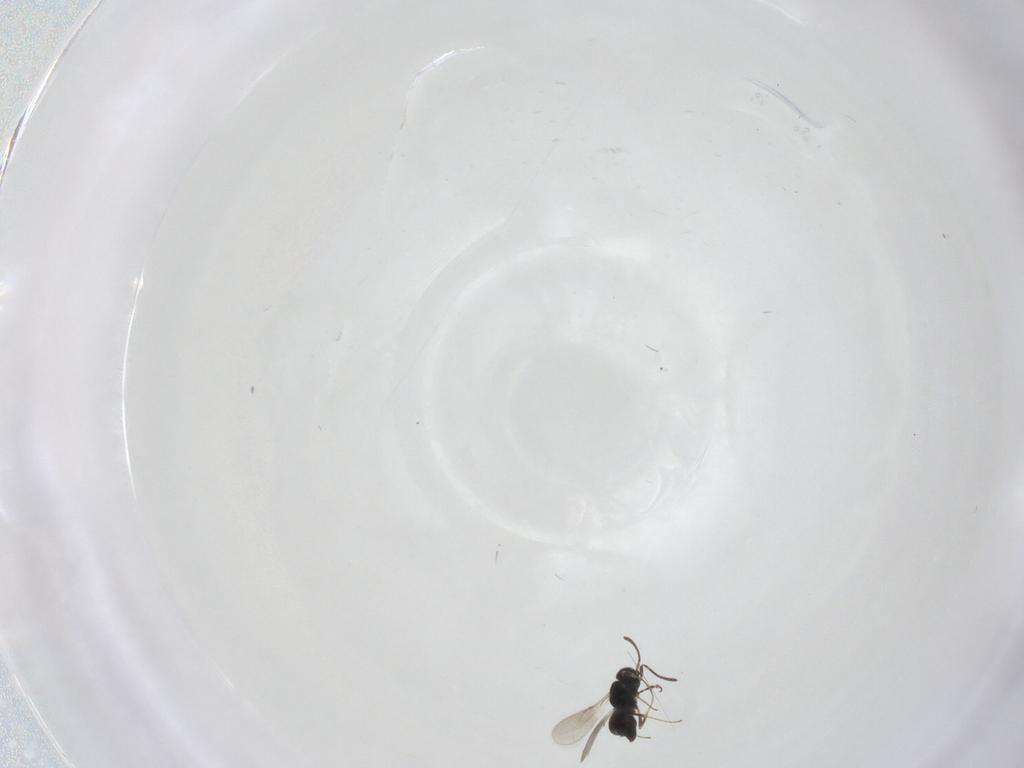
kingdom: Animalia
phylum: Arthropoda
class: Insecta
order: Hymenoptera
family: Scelionidae
